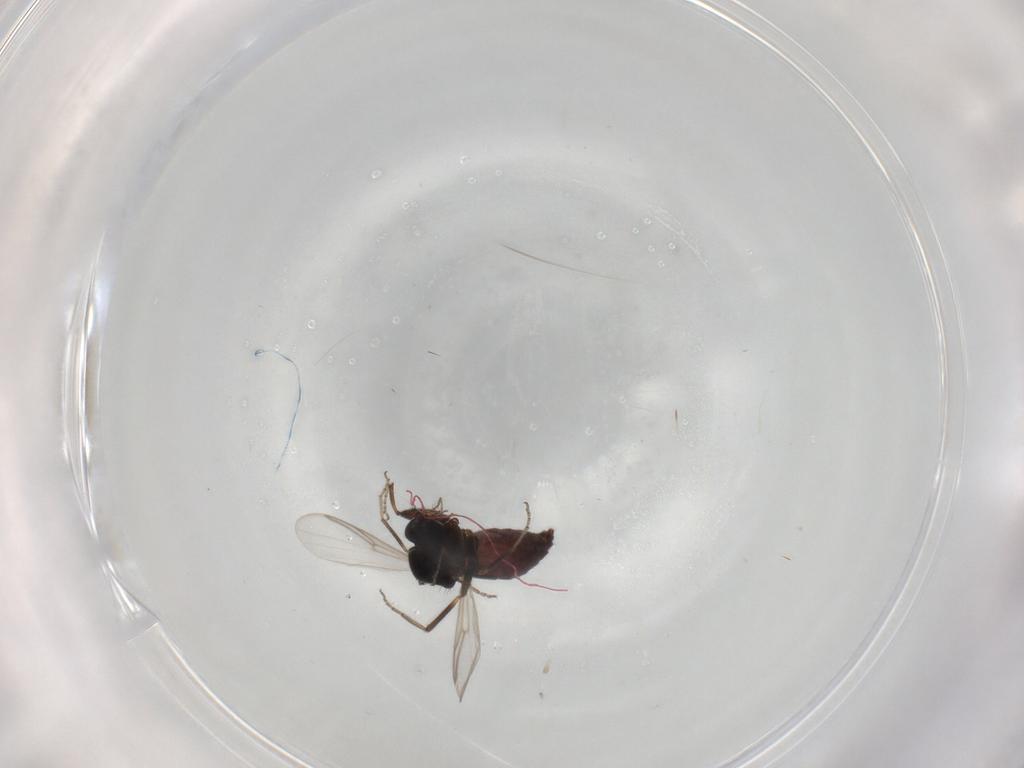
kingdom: Animalia
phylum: Arthropoda
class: Insecta
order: Diptera
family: Ceratopogonidae
